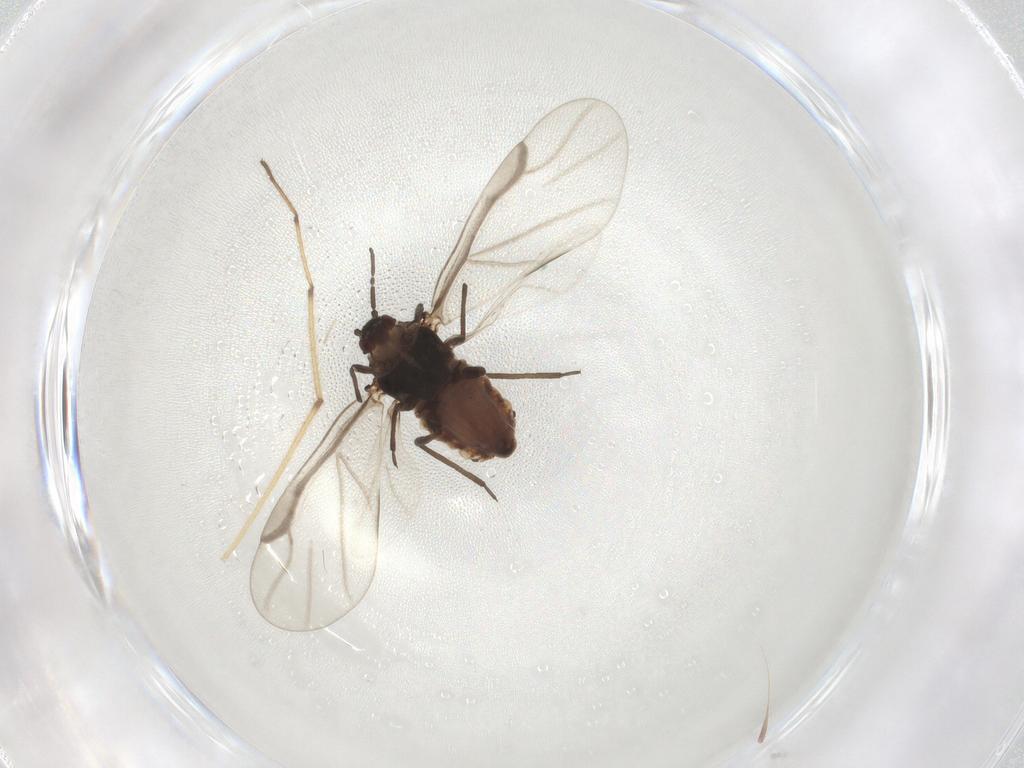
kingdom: Animalia
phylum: Arthropoda
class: Insecta
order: Hemiptera
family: Aphididae
